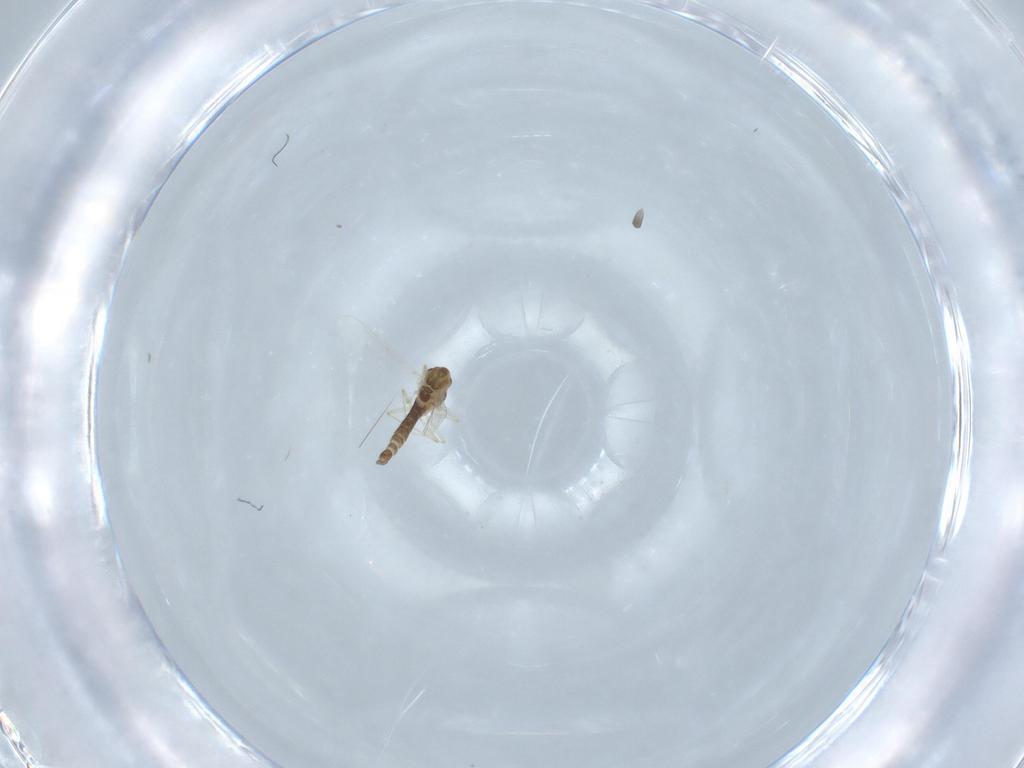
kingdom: Animalia
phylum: Arthropoda
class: Insecta
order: Diptera
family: Chironomidae
